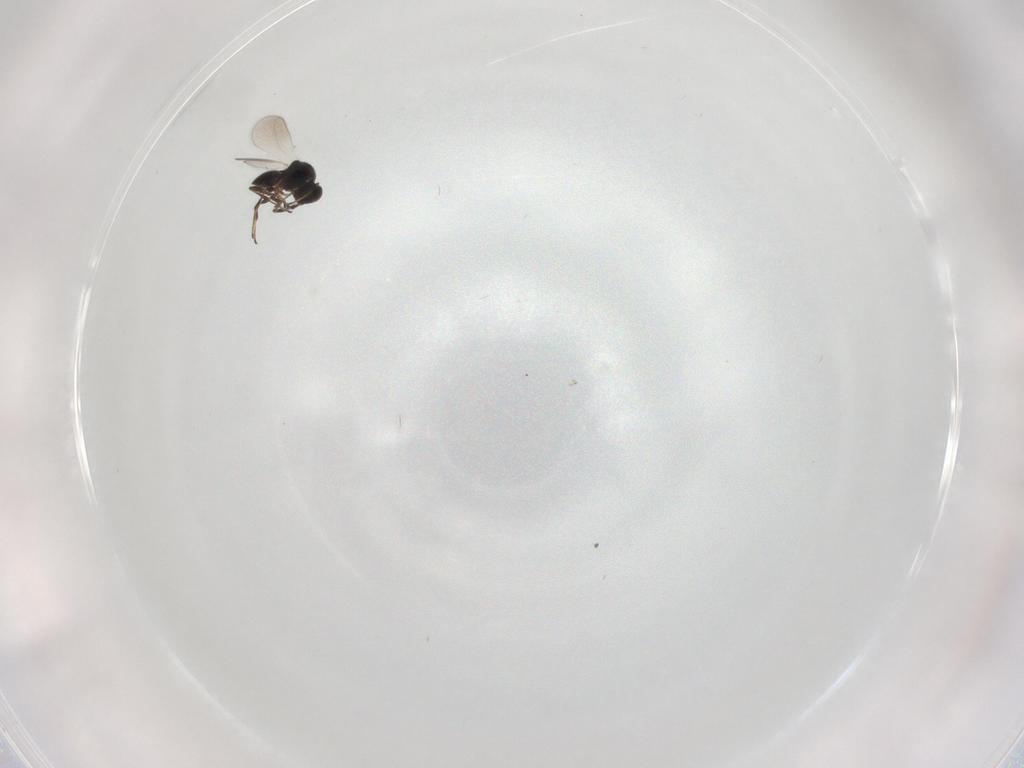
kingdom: Animalia
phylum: Arthropoda
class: Insecta
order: Hymenoptera
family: Platygastridae
